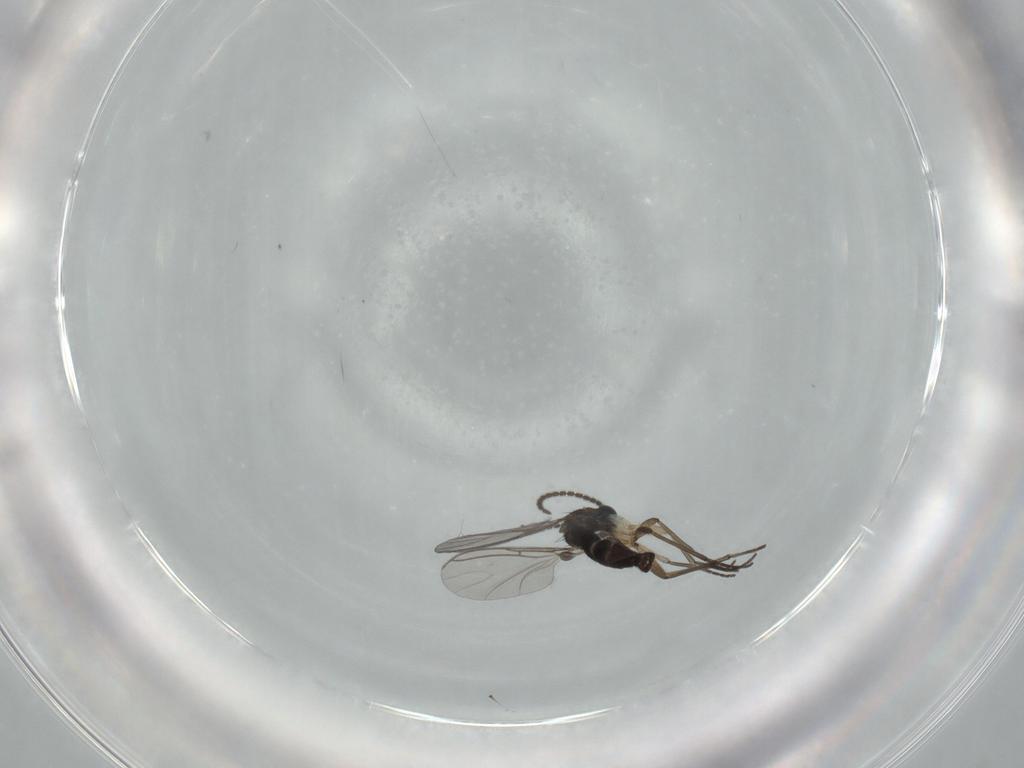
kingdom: Animalia
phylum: Arthropoda
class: Insecta
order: Diptera
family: Sciaridae
